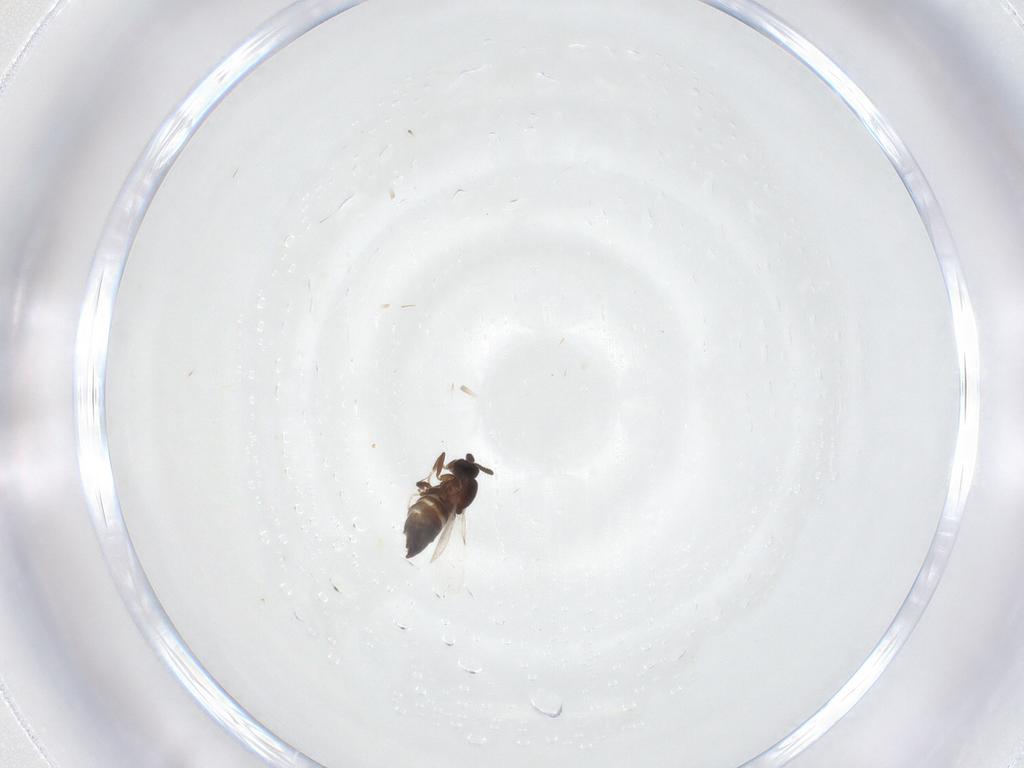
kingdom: Animalia
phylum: Arthropoda
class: Insecta
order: Diptera
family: Scatopsidae
